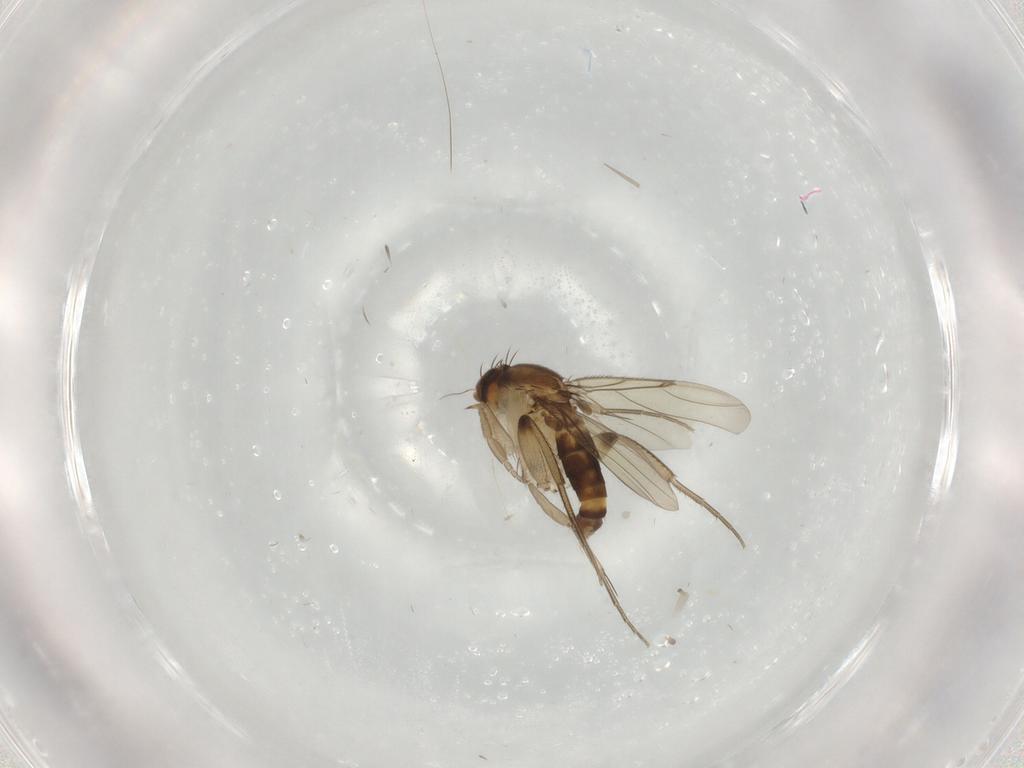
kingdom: Animalia
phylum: Arthropoda
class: Insecta
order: Diptera
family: Phoridae
